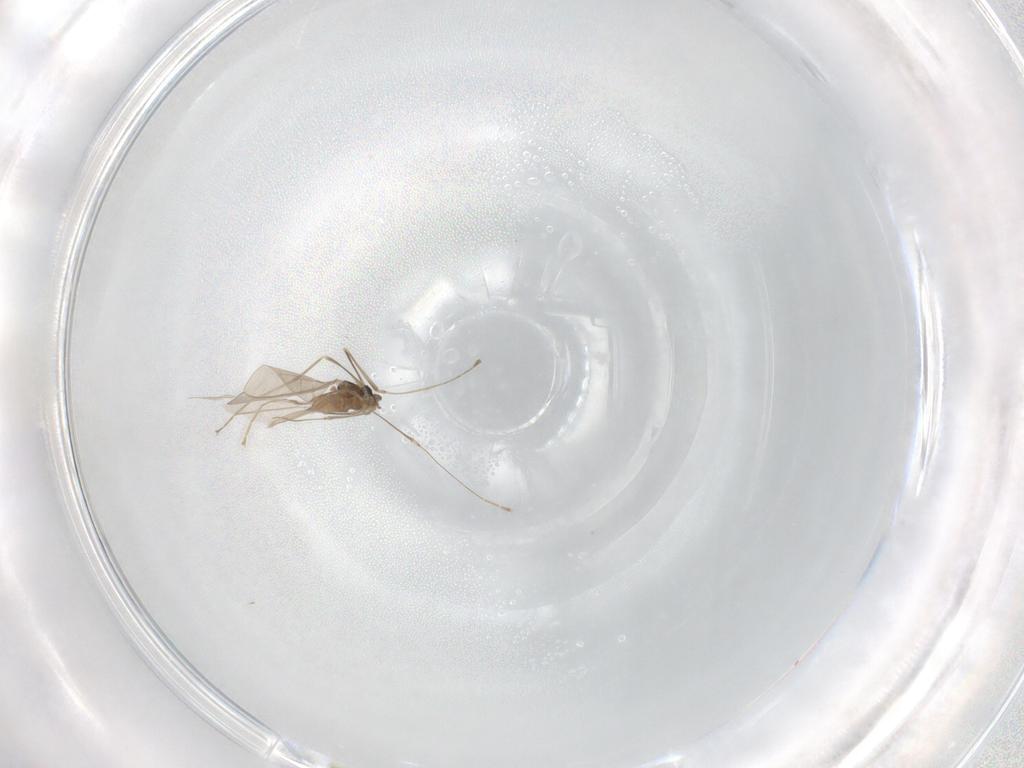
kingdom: Animalia
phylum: Arthropoda
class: Insecta
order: Diptera
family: Cecidomyiidae
